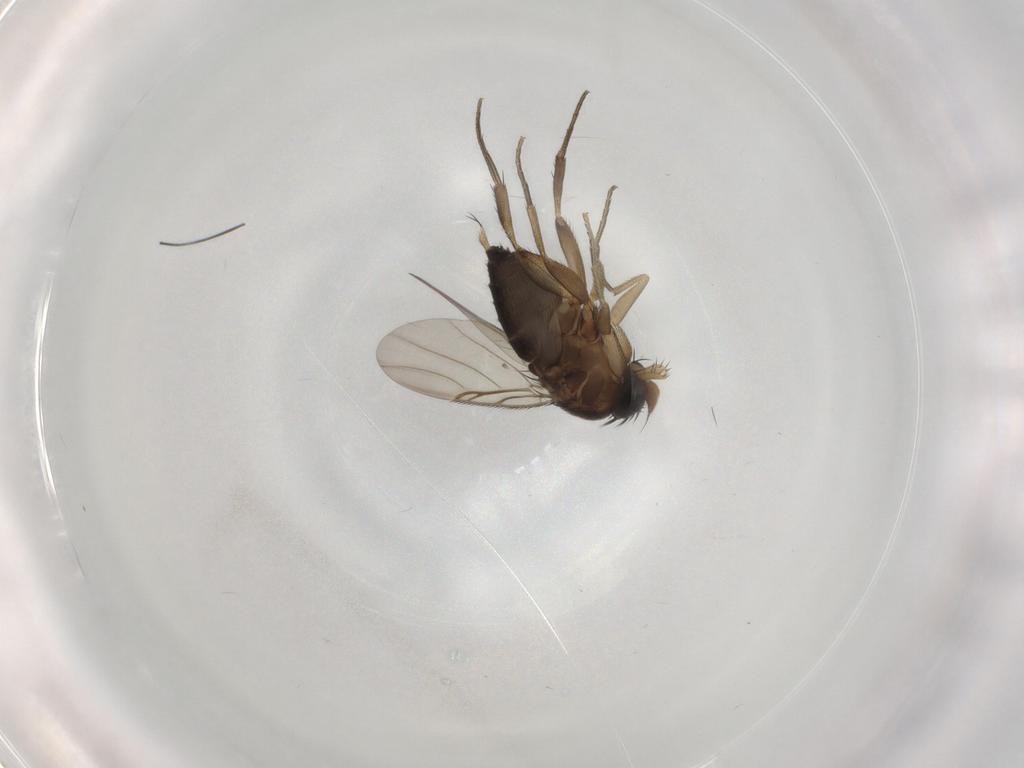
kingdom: Animalia
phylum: Arthropoda
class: Insecta
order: Diptera
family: Phoridae
